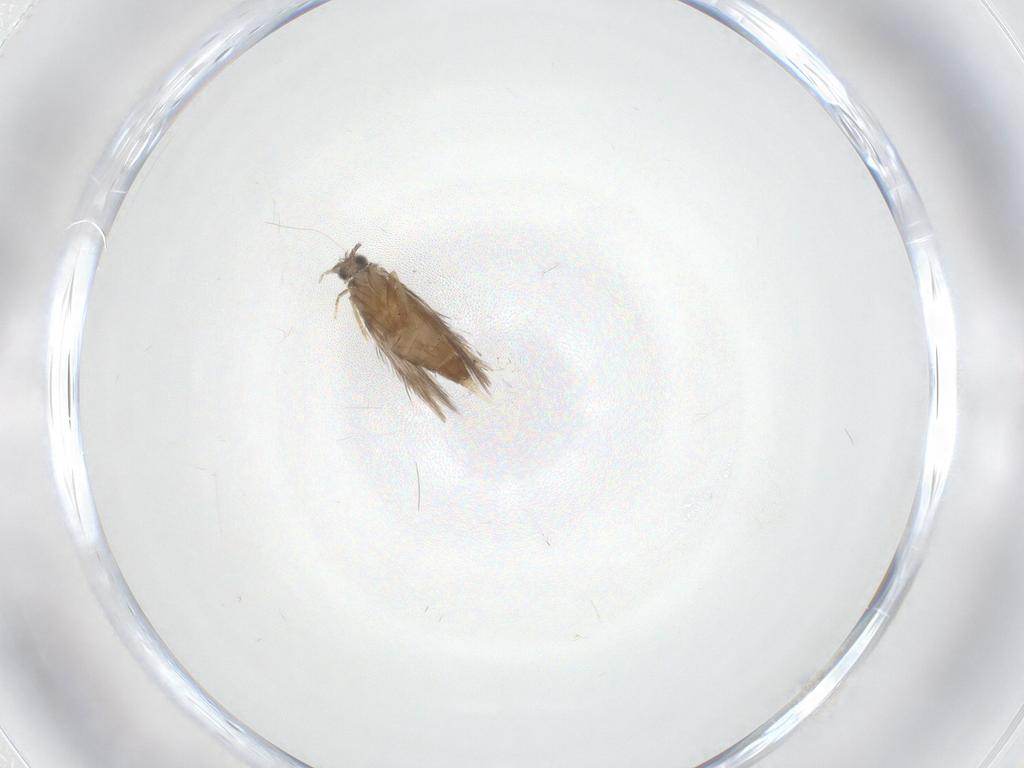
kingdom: Animalia
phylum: Arthropoda
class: Insecta
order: Trichoptera
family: Hydroptilidae
